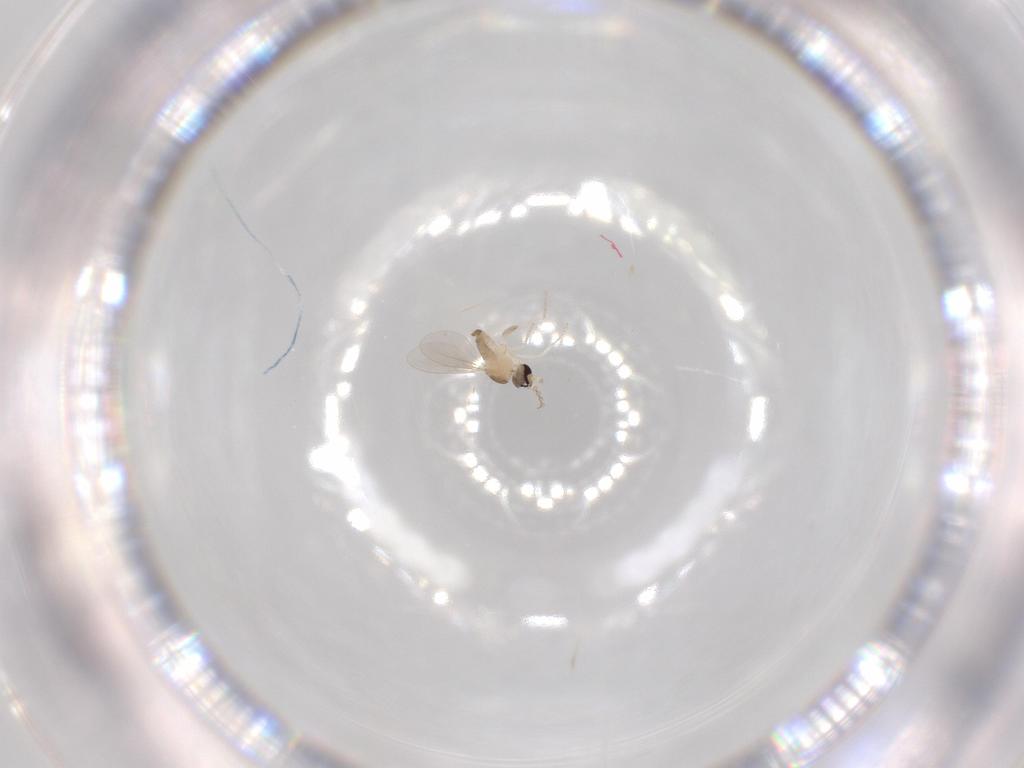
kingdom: Animalia
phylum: Arthropoda
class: Insecta
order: Diptera
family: Cecidomyiidae
